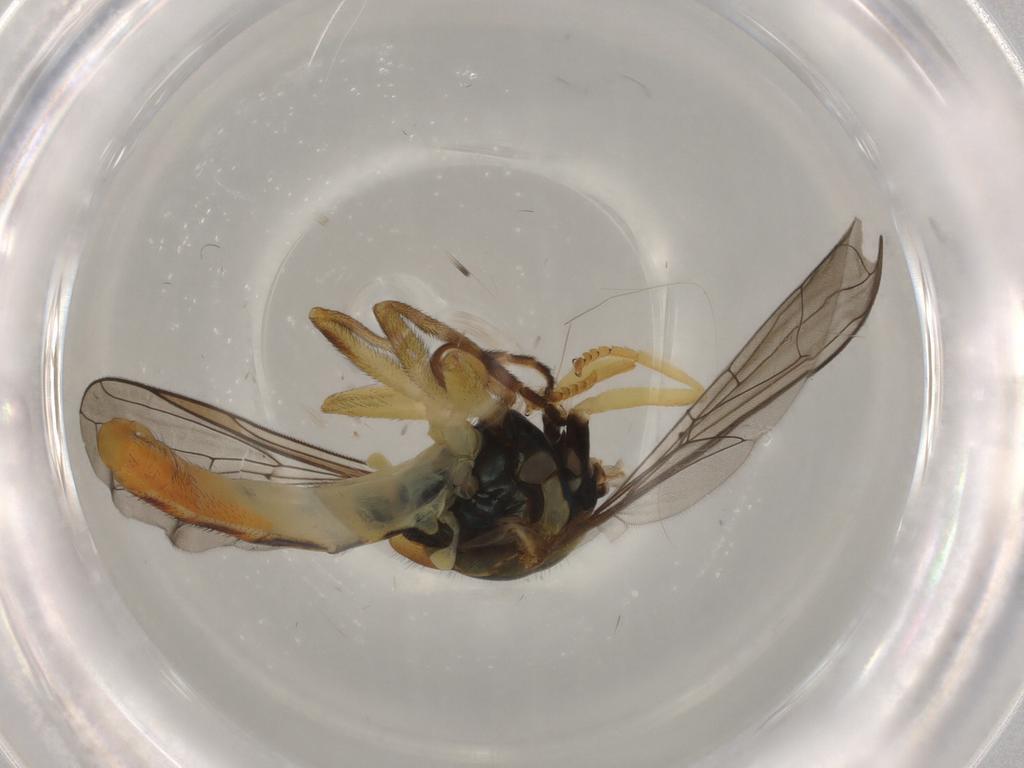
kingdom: Animalia
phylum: Arthropoda
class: Insecta
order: Diptera
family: Syrphidae
